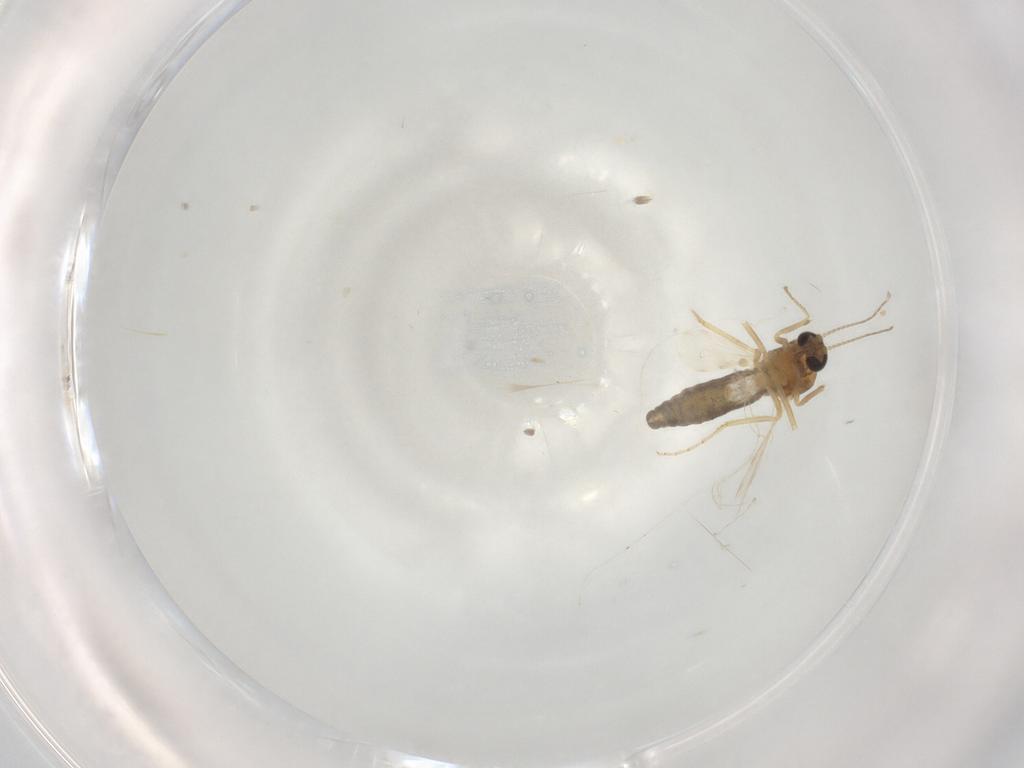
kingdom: Animalia
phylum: Arthropoda
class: Insecta
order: Diptera
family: Ceratopogonidae
